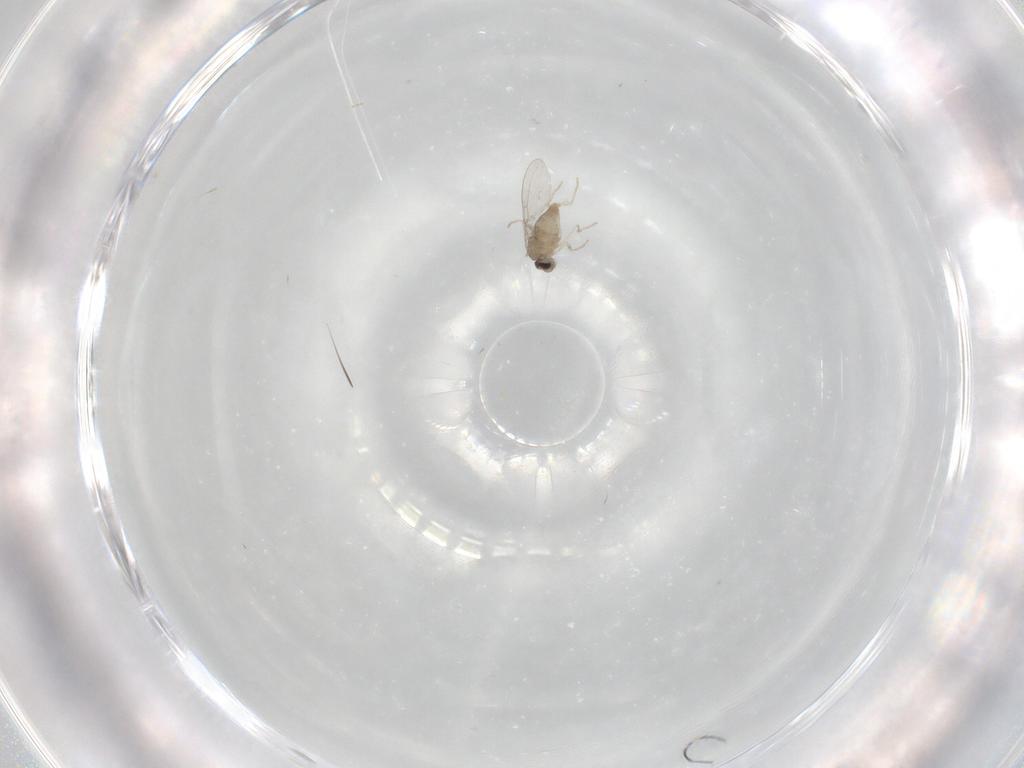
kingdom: Animalia
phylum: Arthropoda
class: Insecta
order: Diptera
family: Cecidomyiidae
